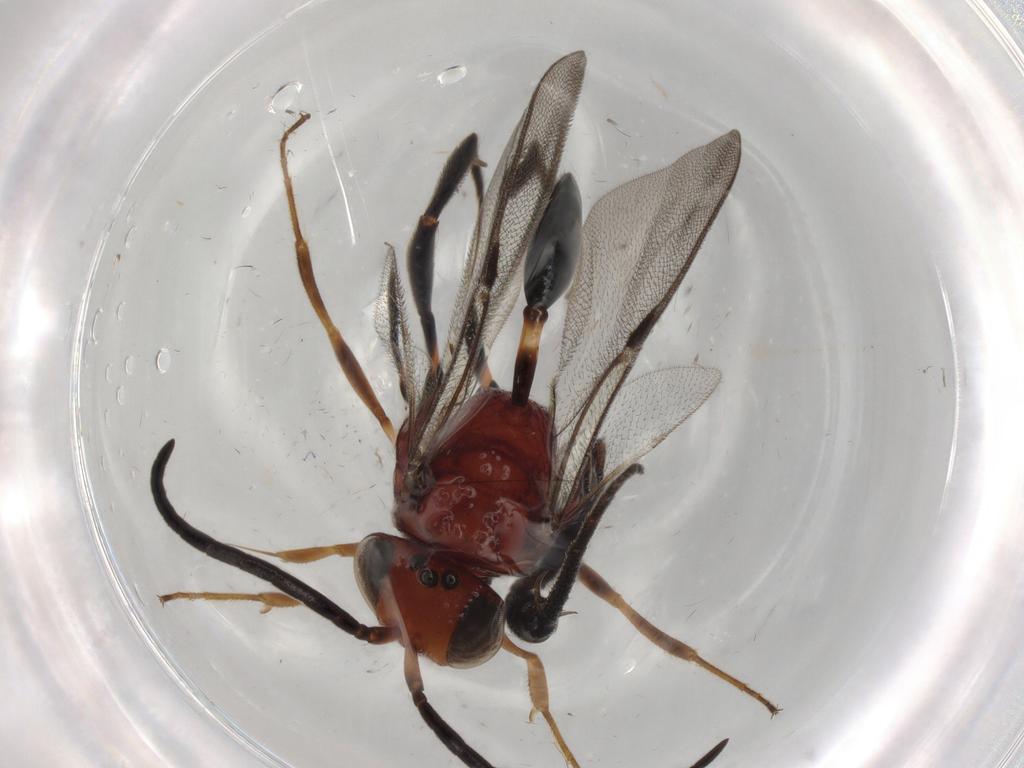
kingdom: Animalia
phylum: Arthropoda
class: Insecta
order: Hymenoptera
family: Evaniidae
